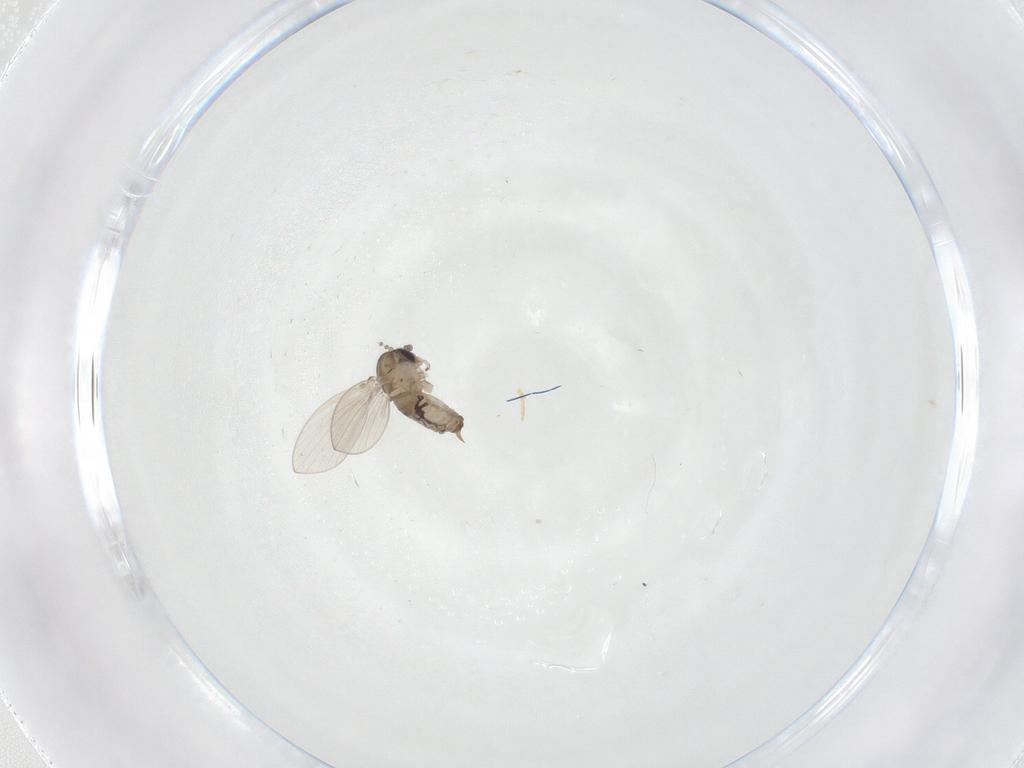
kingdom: Animalia
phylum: Arthropoda
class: Insecta
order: Diptera
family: Psychodidae
